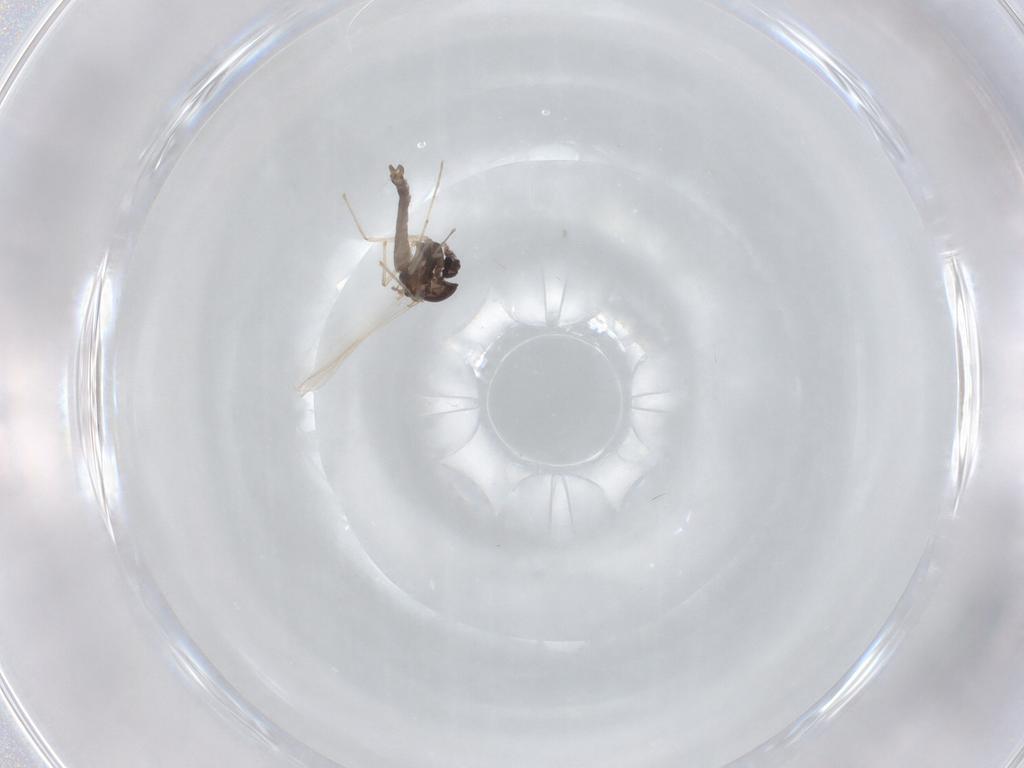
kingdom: Animalia
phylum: Arthropoda
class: Insecta
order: Diptera
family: Chironomidae
